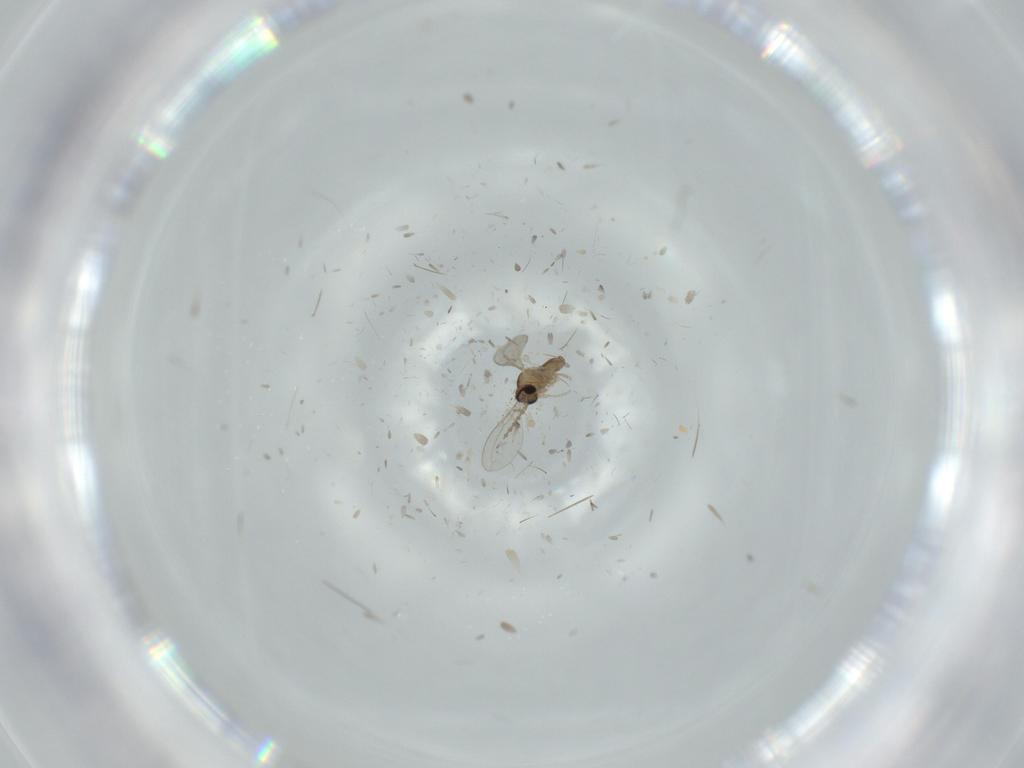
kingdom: Animalia
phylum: Arthropoda
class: Insecta
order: Diptera
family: Cecidomyiidae
